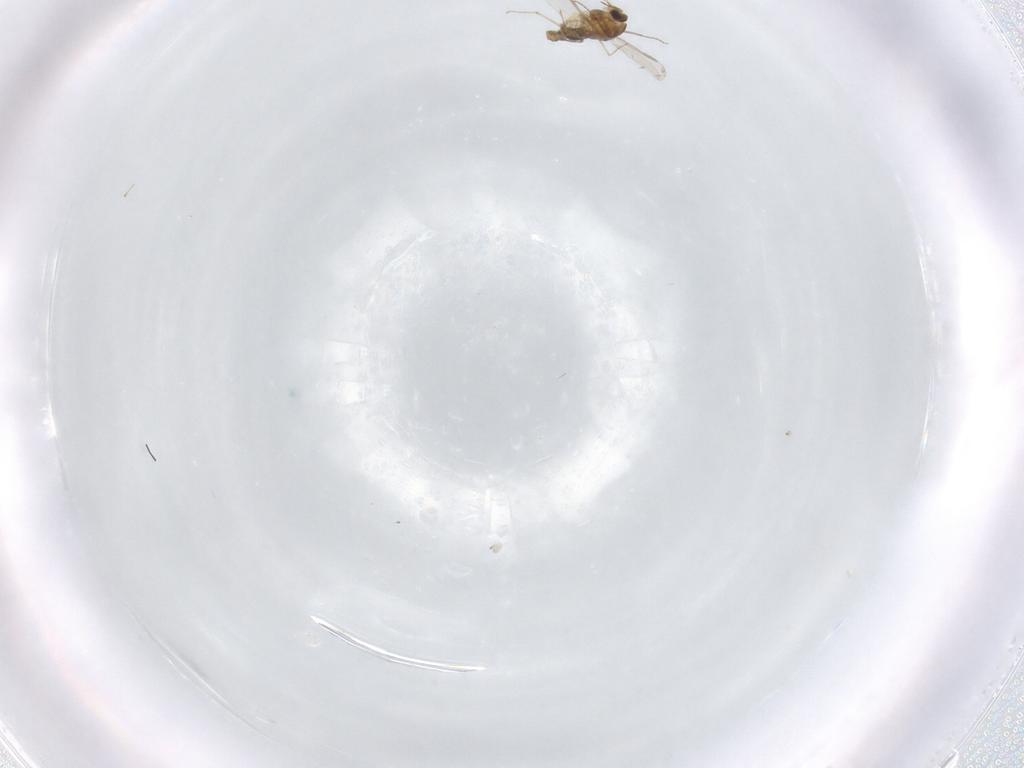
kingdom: Animalia
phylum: Arthropoda
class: Insecta
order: Diptera
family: Chironomidae
